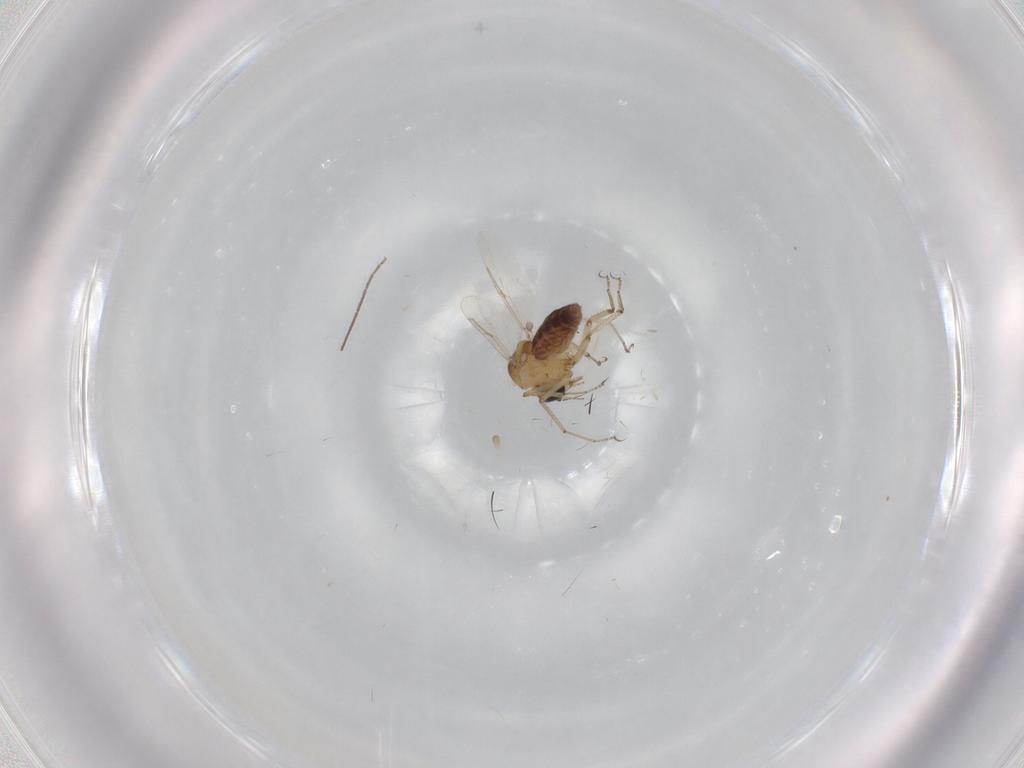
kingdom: Animalia
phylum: Arthropoda
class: Insecta
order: Diptera
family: Ceratopogonidae
